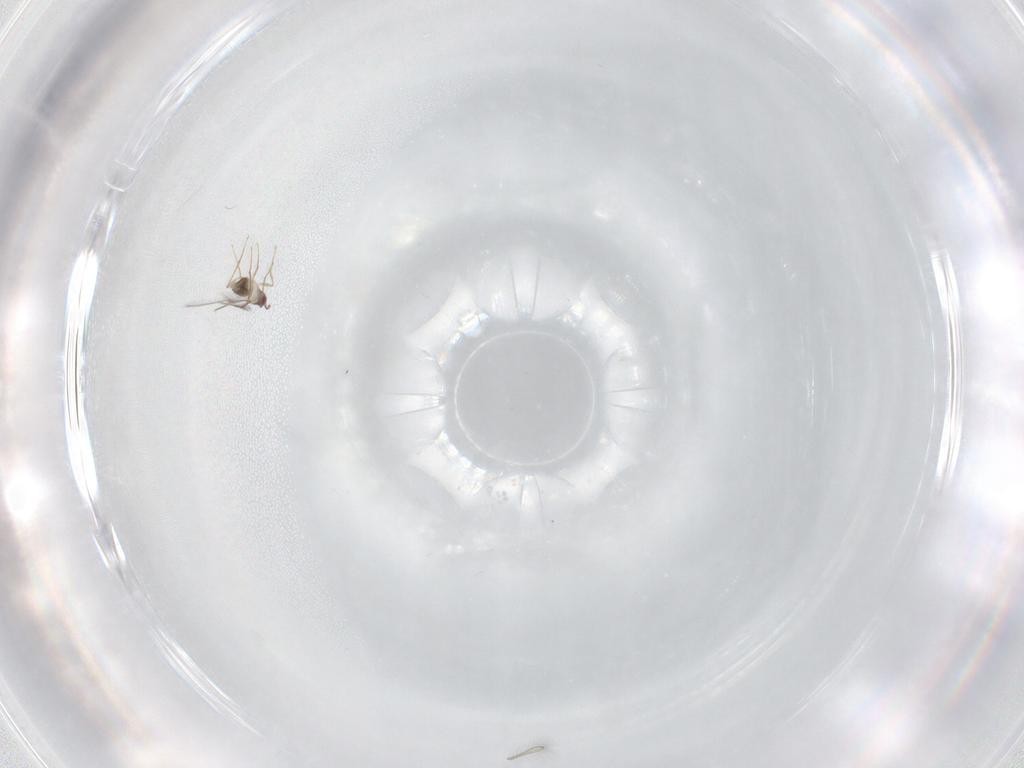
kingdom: Animalia
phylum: Arthropoda
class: Insecta
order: Hymenoptera
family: Mymaridae
